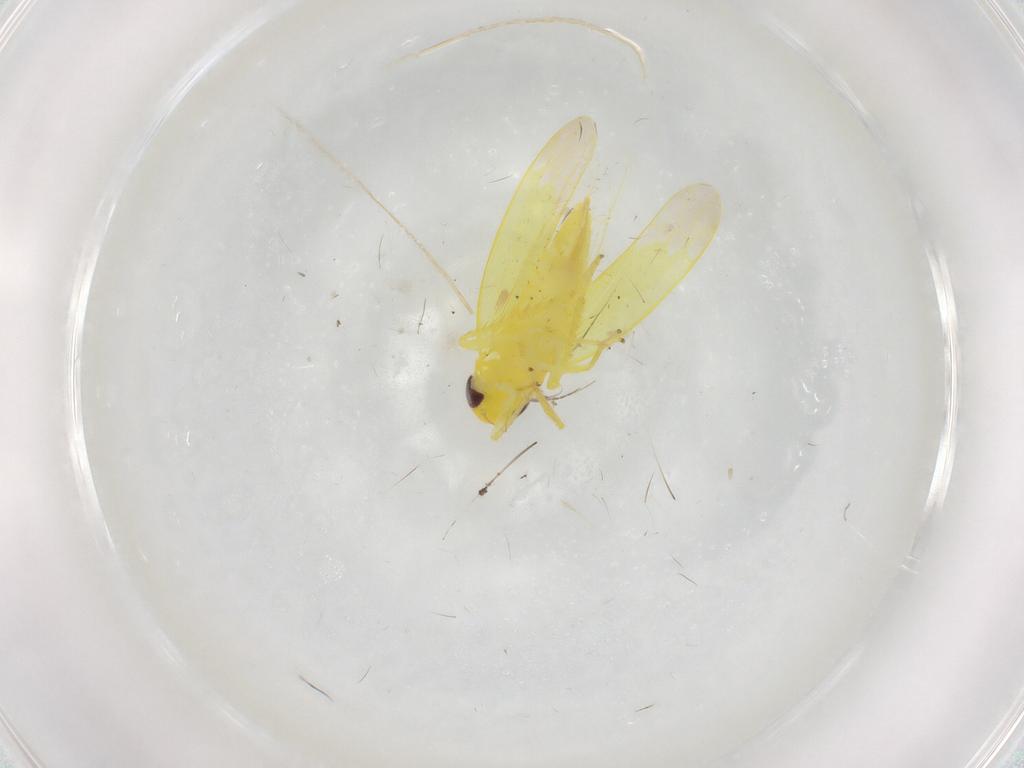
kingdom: Animalia
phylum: Arthropoda
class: Insecta
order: Hemiptera
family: Cicadellidae
